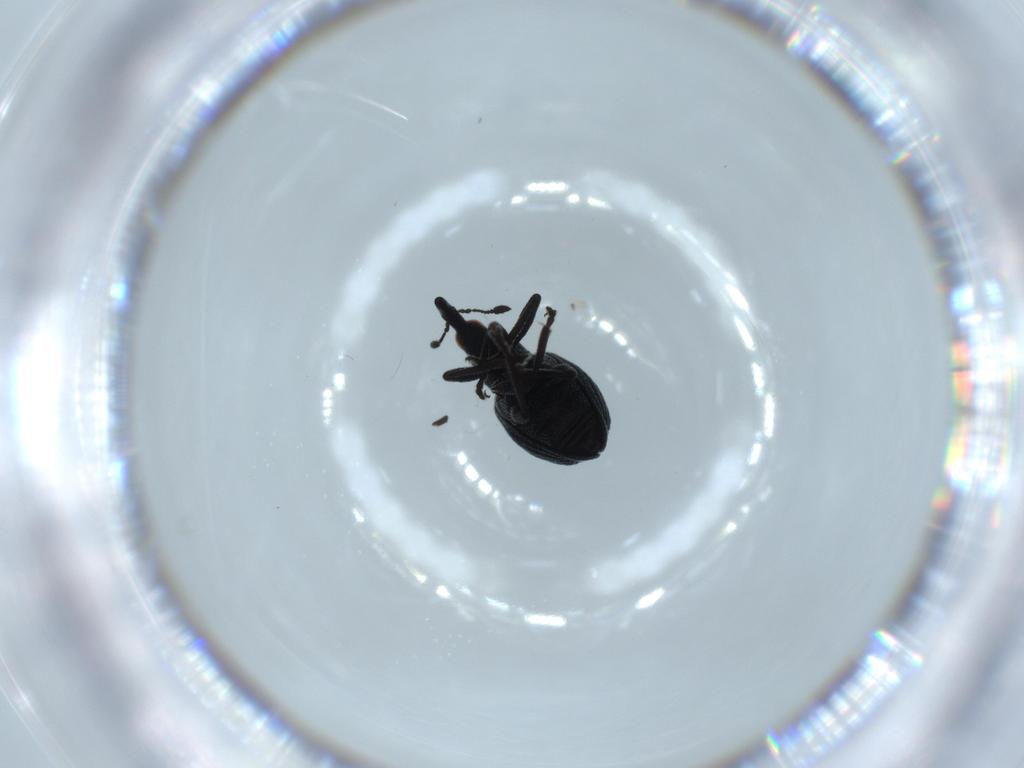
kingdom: Animalia
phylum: Arthropoda
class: Insecta
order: Coleoptera
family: Brentidae
